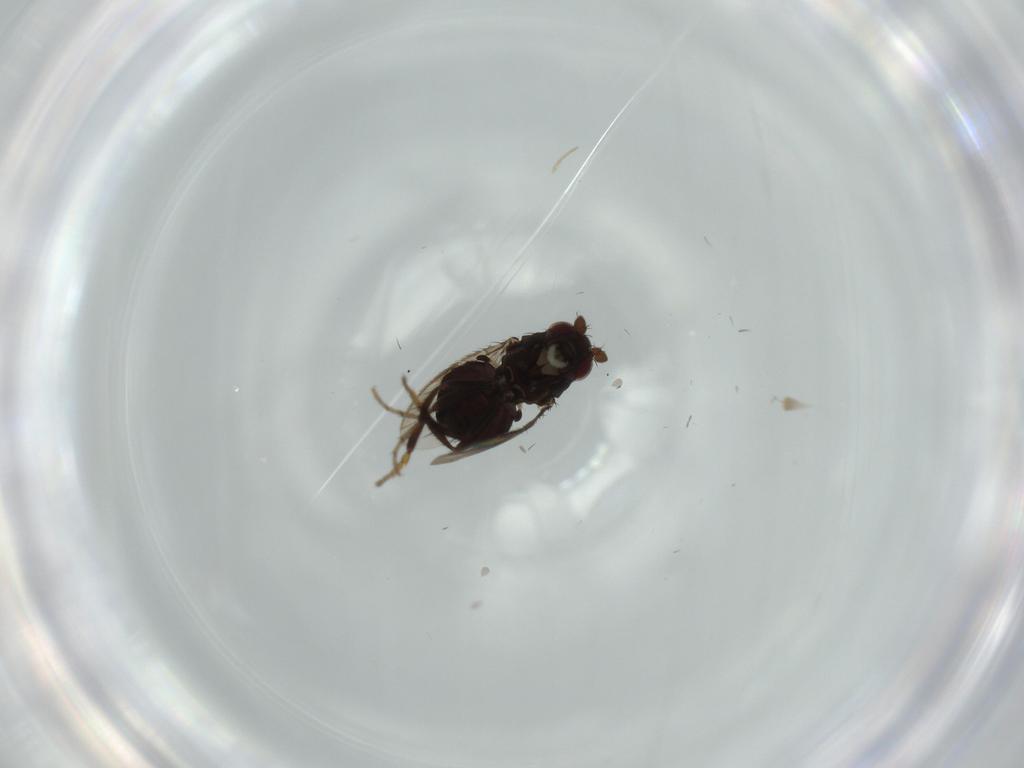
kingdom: Animalia
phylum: Arthropoda
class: Insecta
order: Diptera
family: Sphaeroceridae
